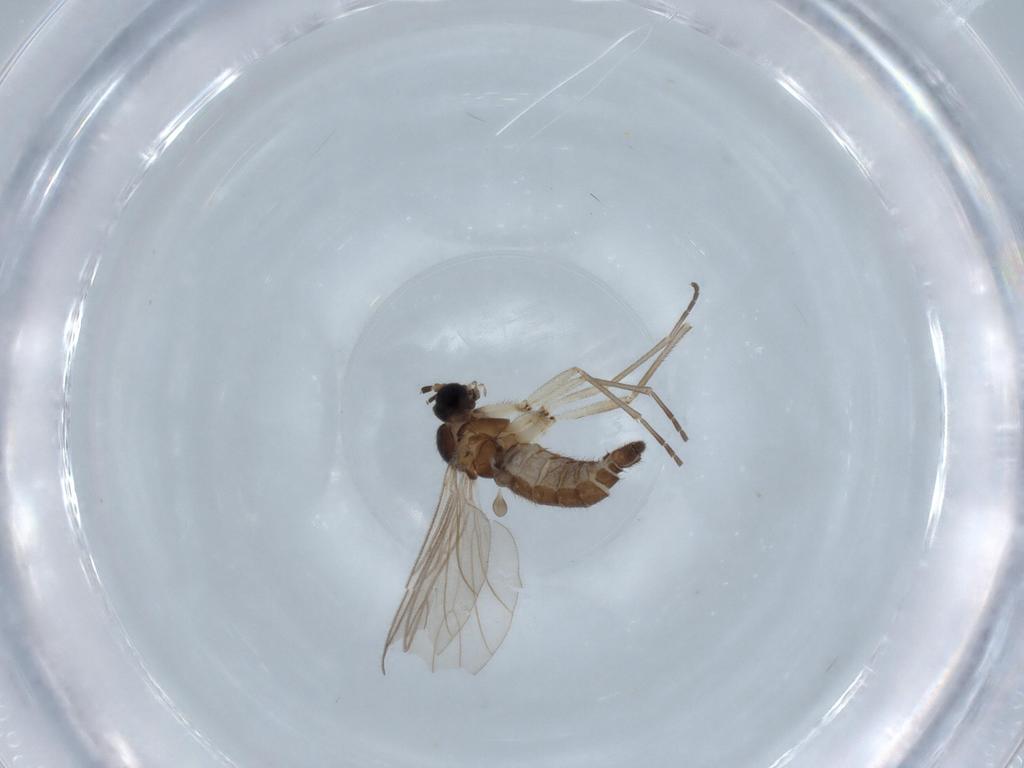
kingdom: Animalia
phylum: Arthropoda
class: Insecta
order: Diptera
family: Sciaridae
